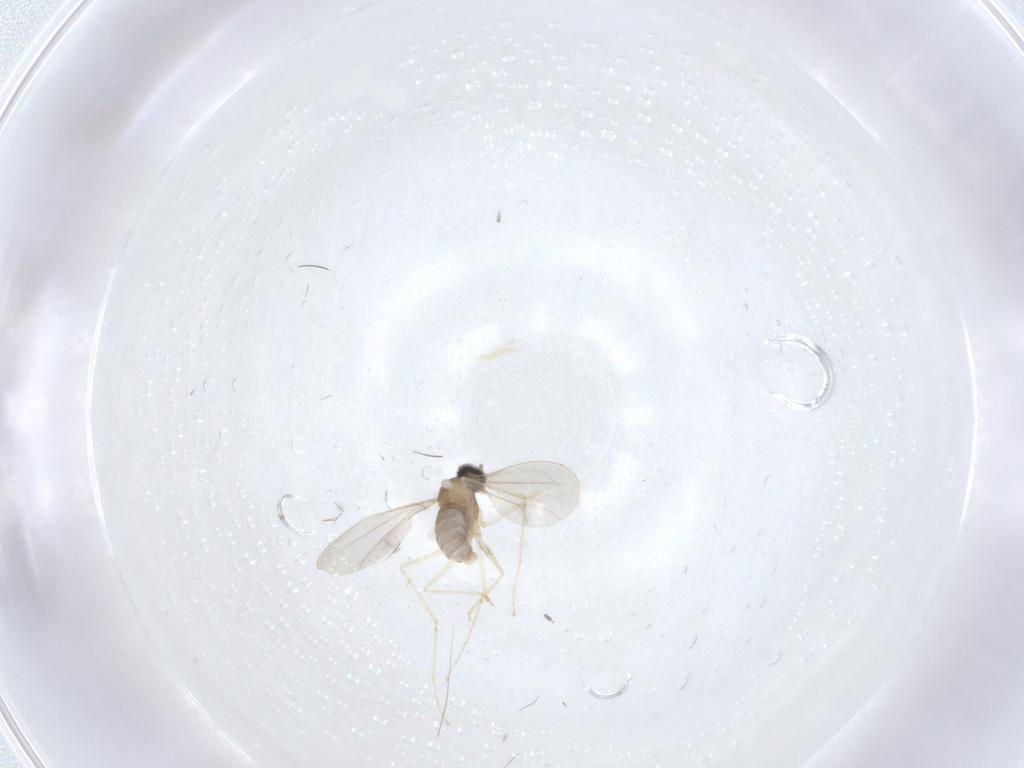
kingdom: Animalia
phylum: Arthropoda
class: Insecta
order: Diptera
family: Cecidomyiidae
